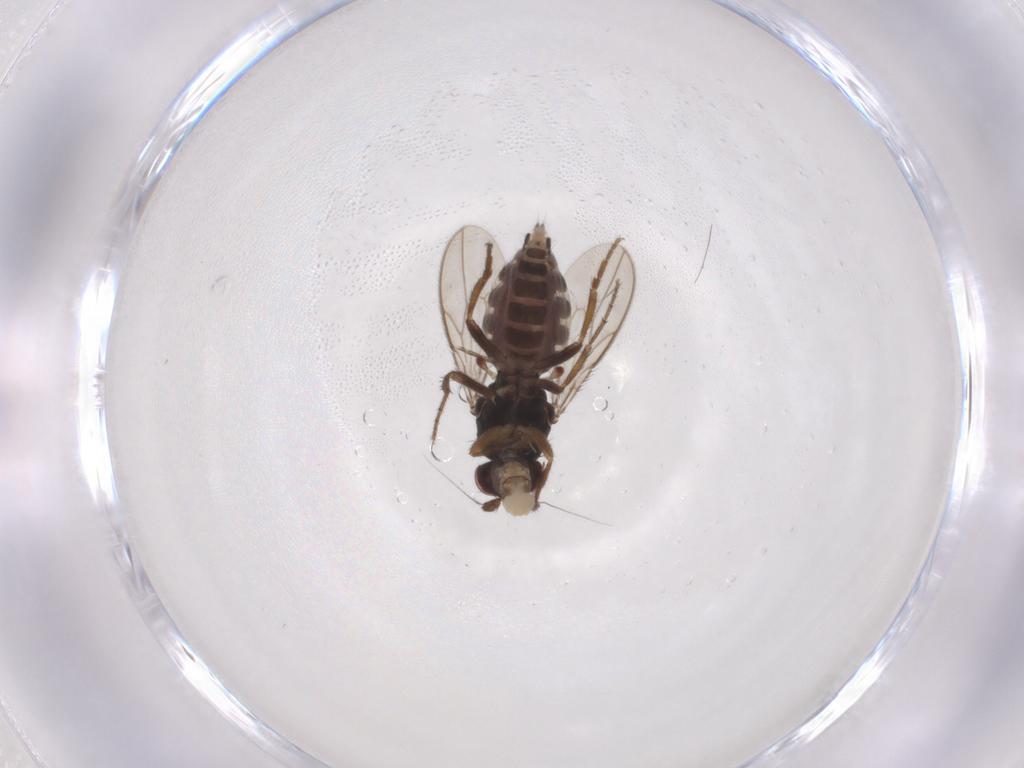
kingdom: Animalia
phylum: Arthropoda
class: Insecta
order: Diptera
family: Sphaeroceridae
